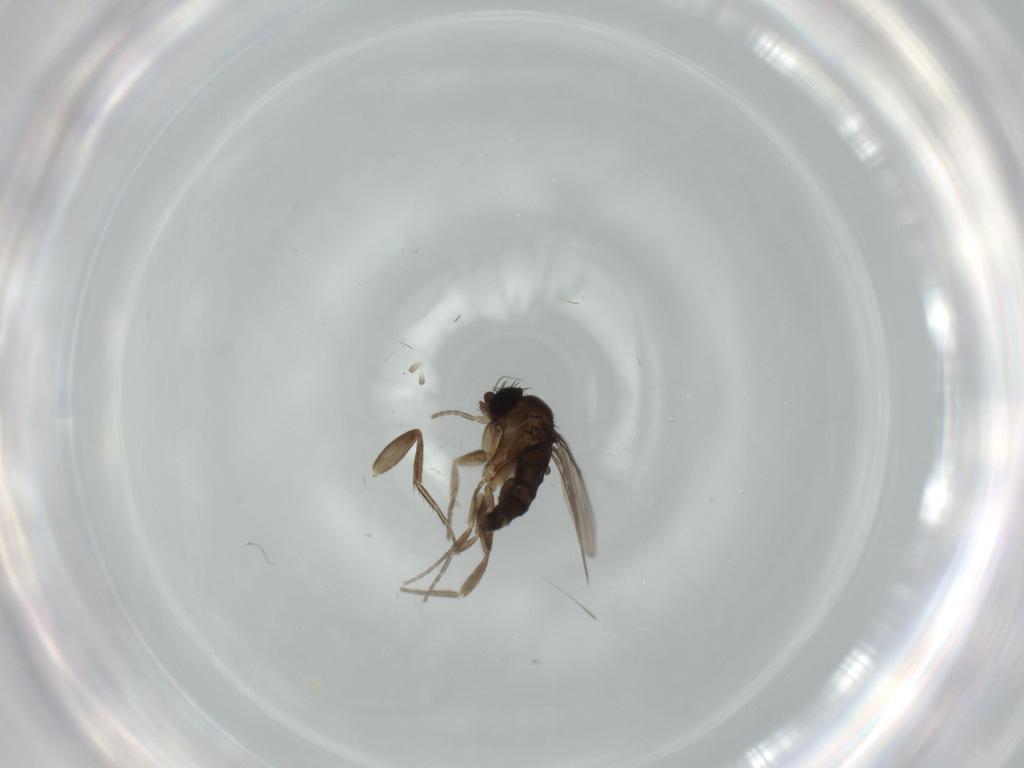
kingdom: Animalia
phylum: Arthropoda
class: Insecta
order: Diptera
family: Phoridae
